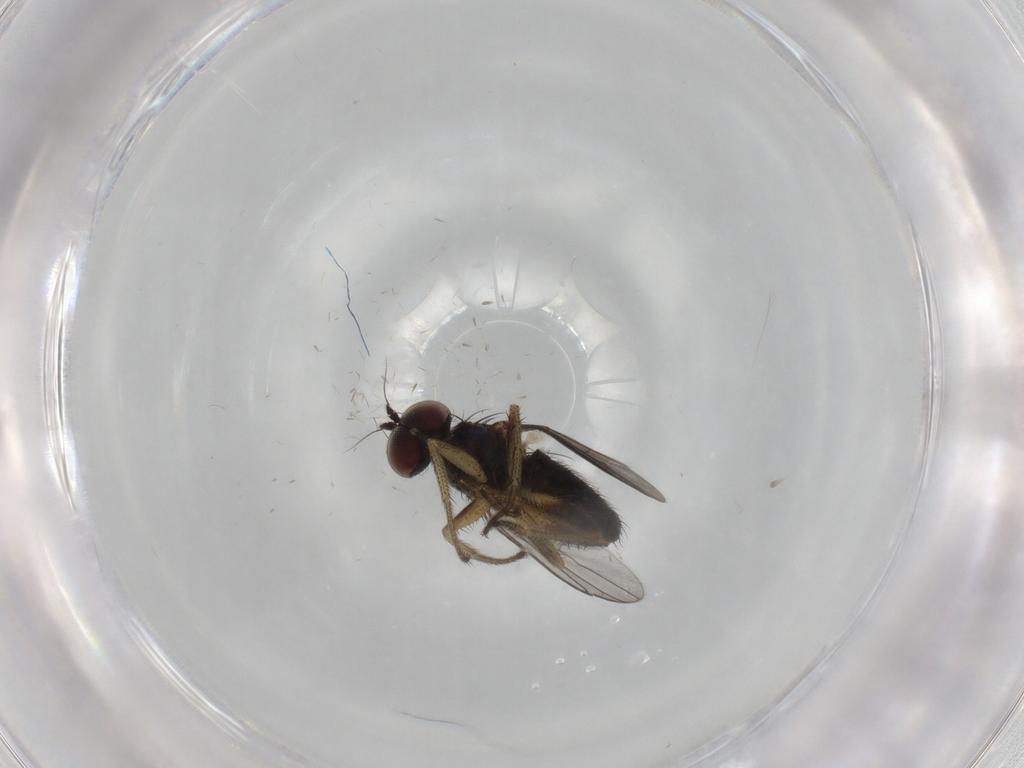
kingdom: Animalia
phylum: Arthropoda
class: Insecta
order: Diptera
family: Dolichopodidae
